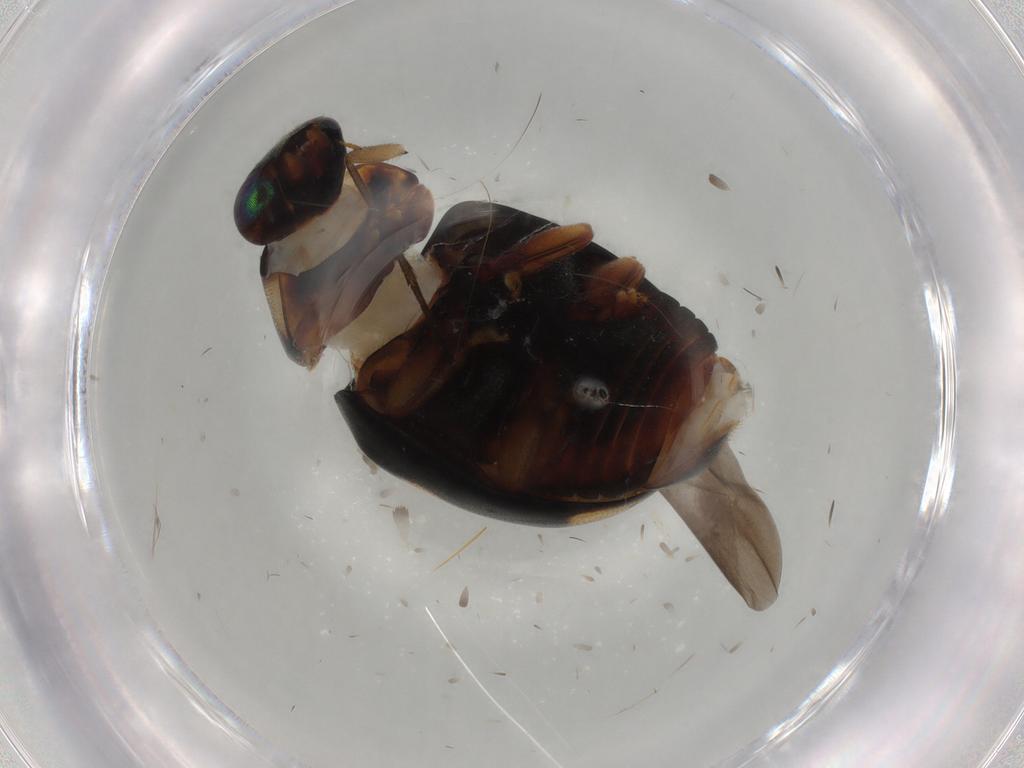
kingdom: Animalia
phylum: Arthropoda
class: Insecta
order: Coleoptera
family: Coccinellidae
